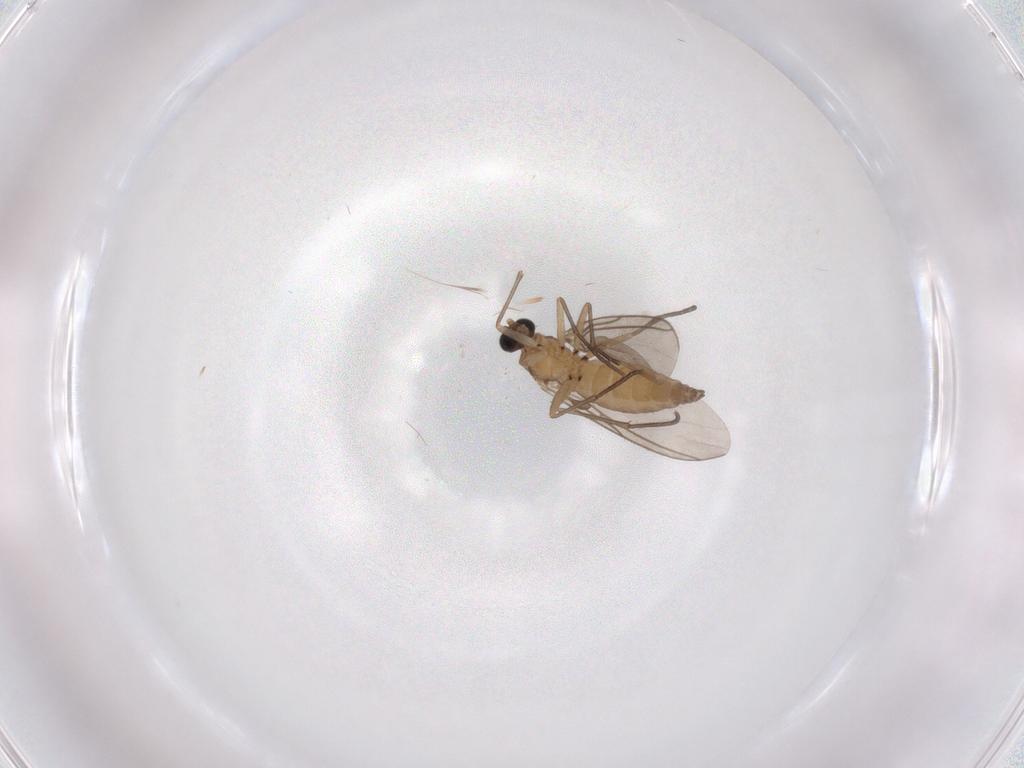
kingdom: Animalia
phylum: Arthropoda
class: Insecta
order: Diptera
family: Sciaridae
